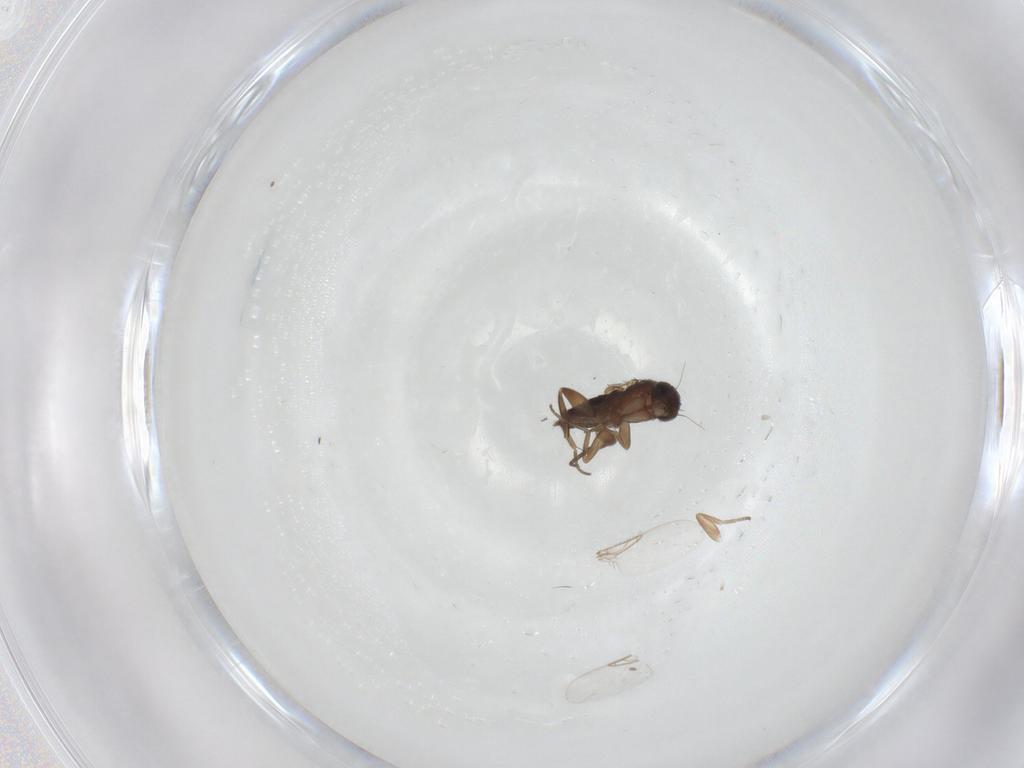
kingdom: Animalia
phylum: Arthropoda
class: Insecta
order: Diptera
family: Phoridae
